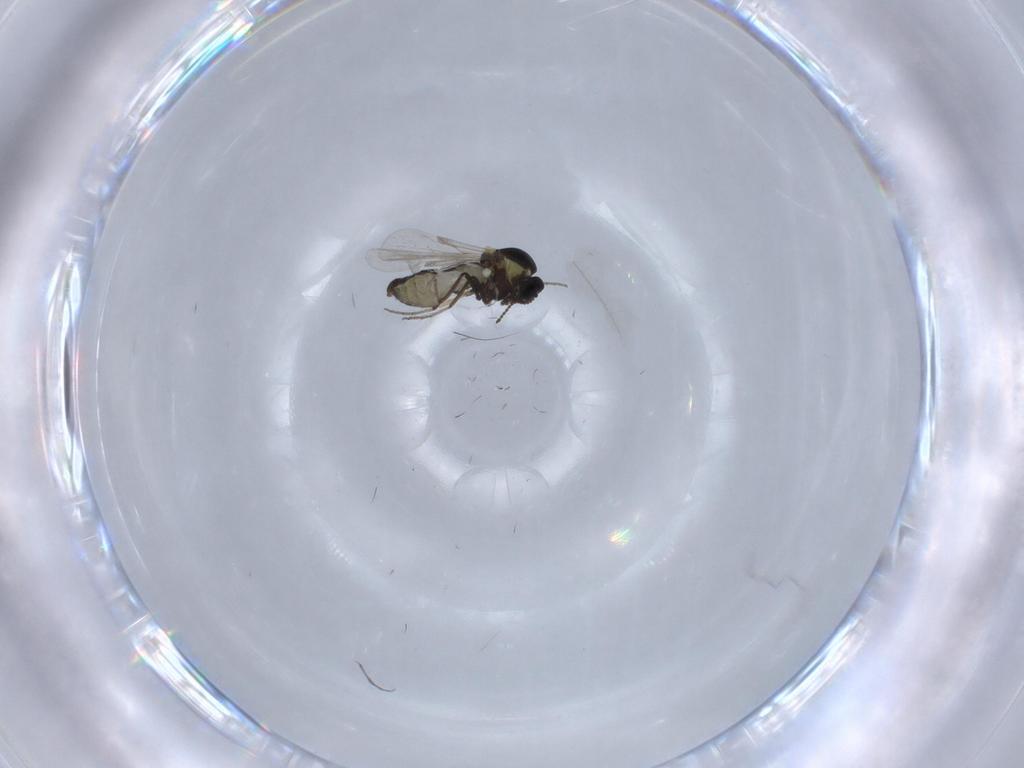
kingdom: Animalia
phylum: Arthropoda
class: Insecta
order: Diptera
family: Ceratopogonidae
